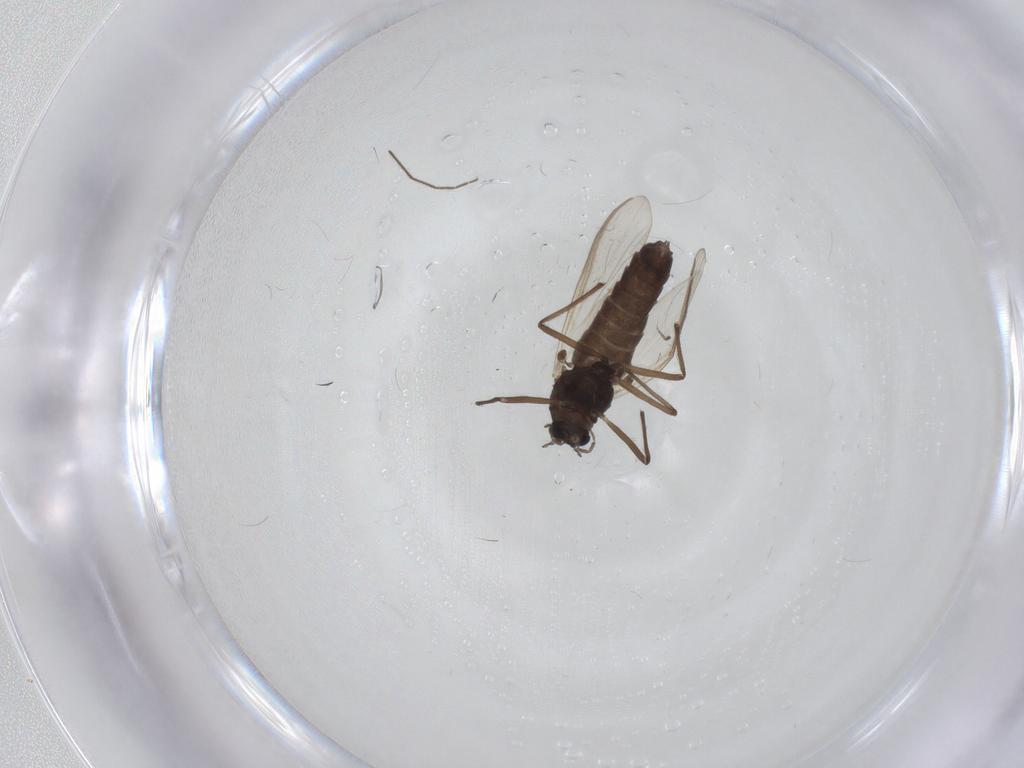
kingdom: Animalia
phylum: Arthropoda
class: Insecta
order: Diptera
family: Chironomidae
